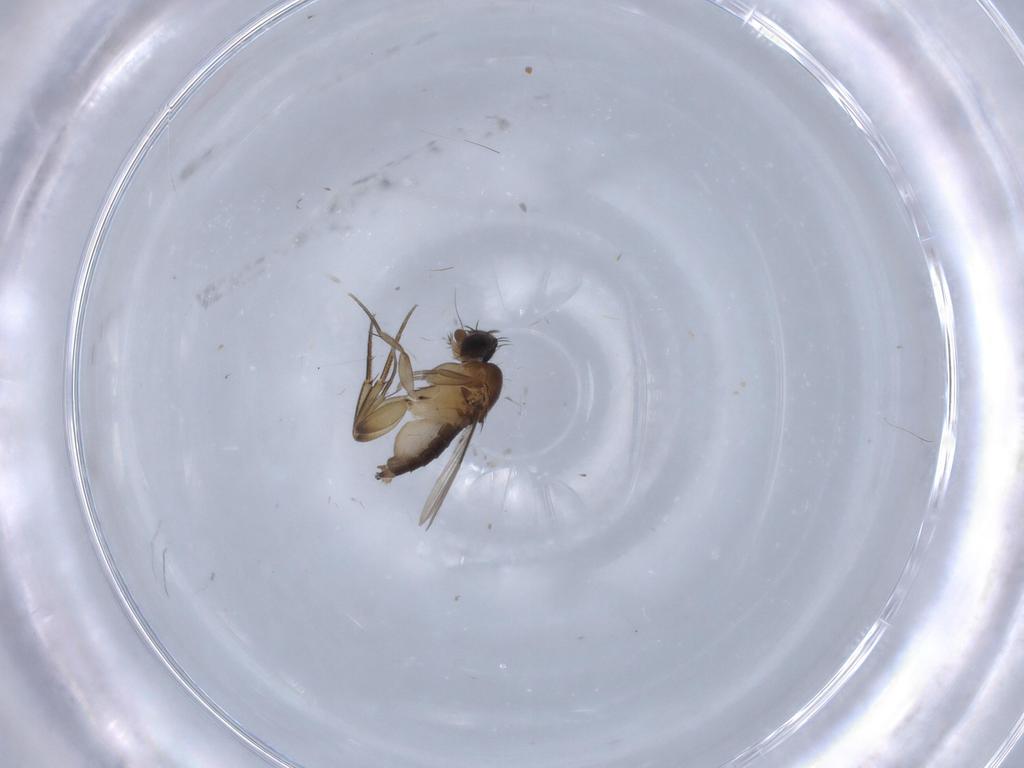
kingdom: Animalia
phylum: Arthropoda
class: Insecta
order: Diptera
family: Phoridae
